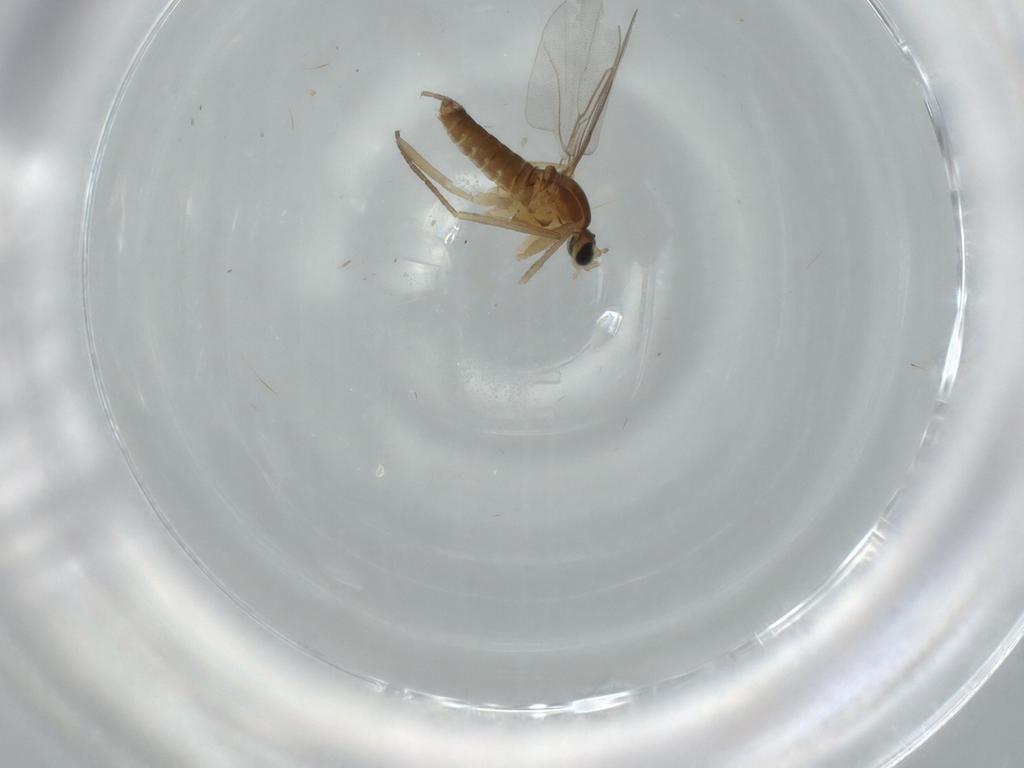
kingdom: Animalia
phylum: Arthropoda
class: Insecta
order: Diptera
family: Cecidomyiidae
